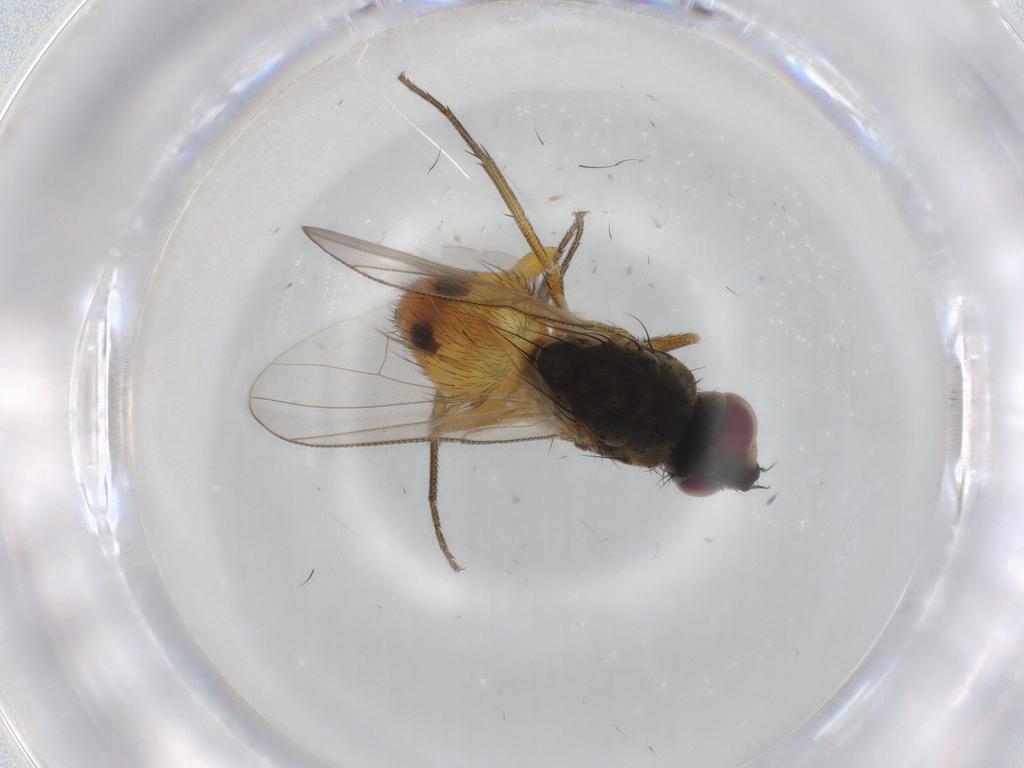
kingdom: Animalia
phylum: Arthropoda
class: Insecta
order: Diptera
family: Muscidae
